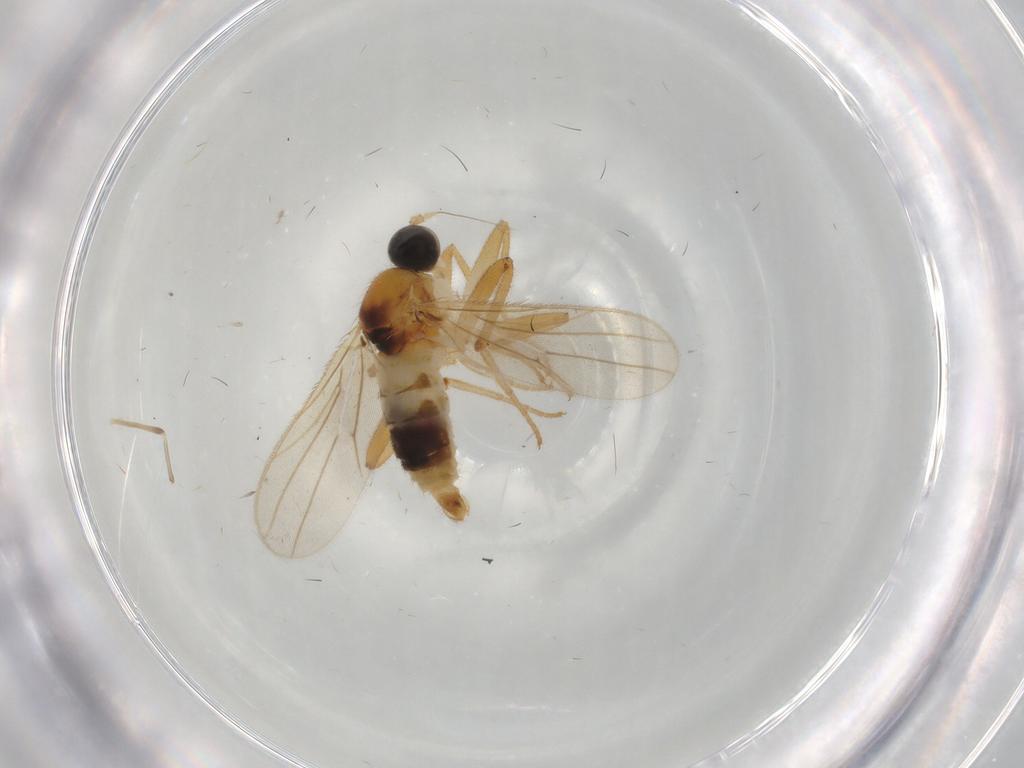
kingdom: Animalia
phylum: Arthropoda
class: Insecta
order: Diptera
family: Hybotidae
